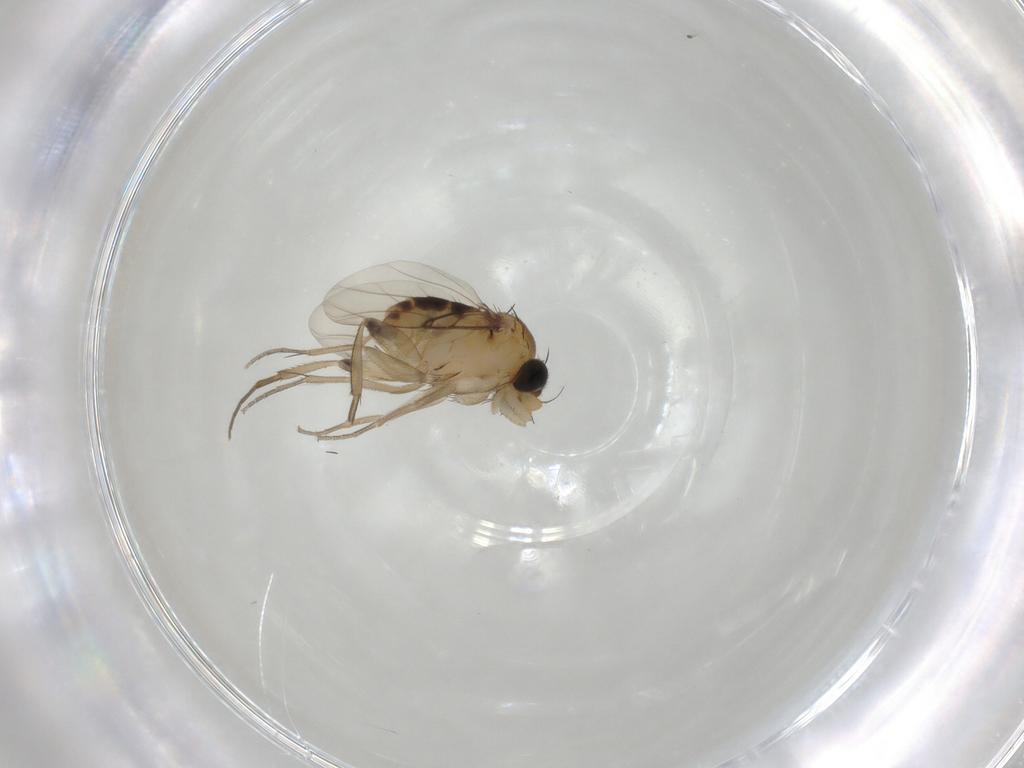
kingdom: Animalia
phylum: Arthropoda
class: Insecta
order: Diptera
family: Phoridae
